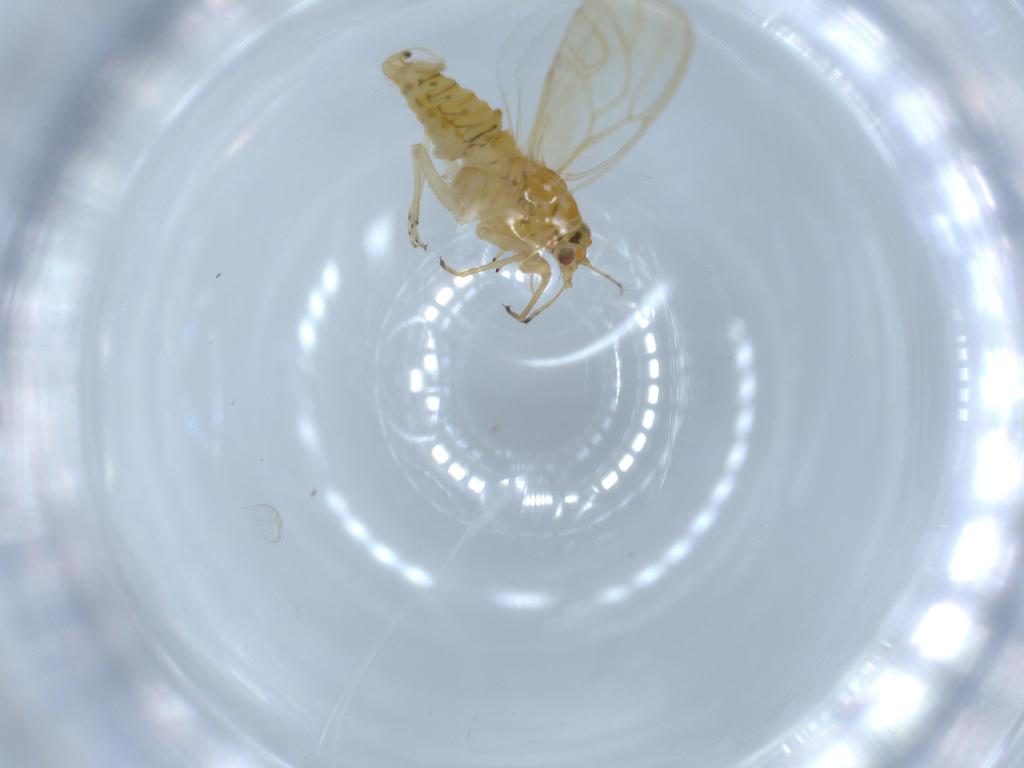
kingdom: Animalia
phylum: Arthropoda
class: Insecta
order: Hemiptera
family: Psyllidae
